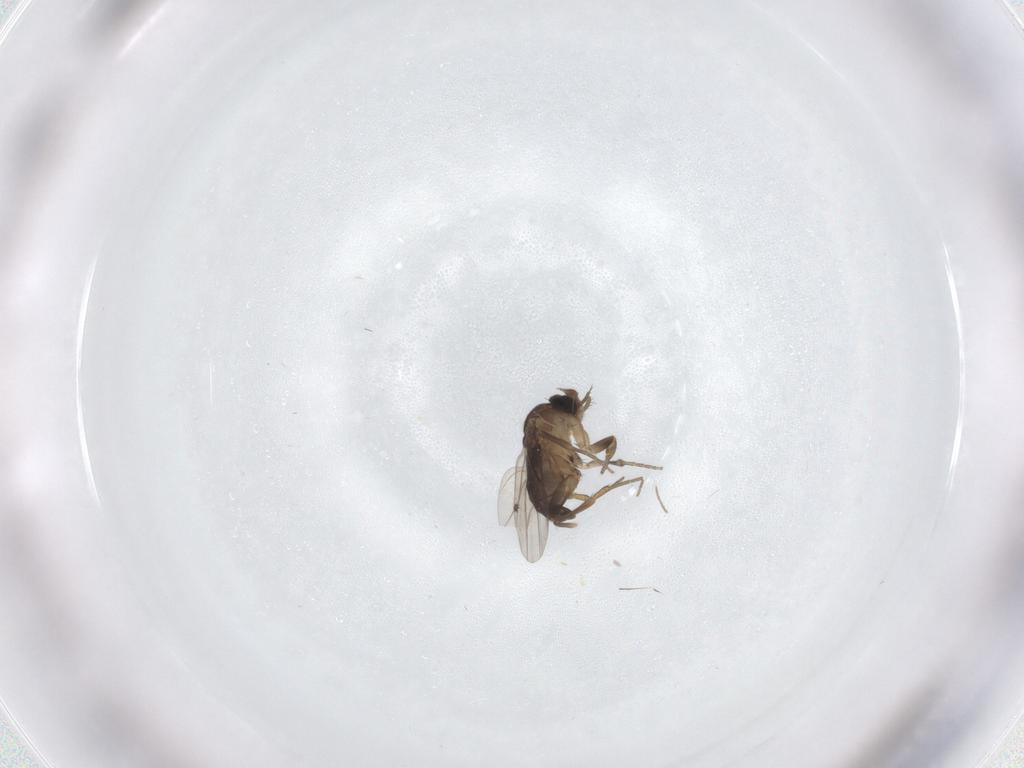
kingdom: Animalia
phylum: Arthropoda
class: Insecta
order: Diptera
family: Phoridae
